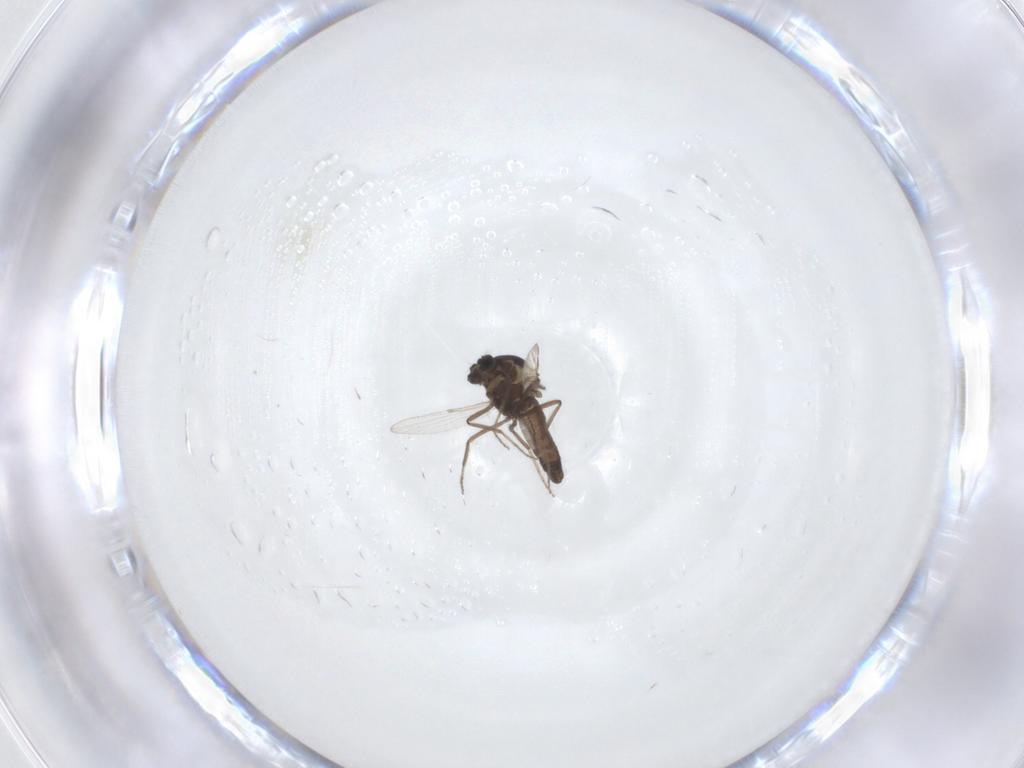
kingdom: Animalia
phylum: Arthropoda
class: Insecta
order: Diptera
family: Ceratopogonidae
